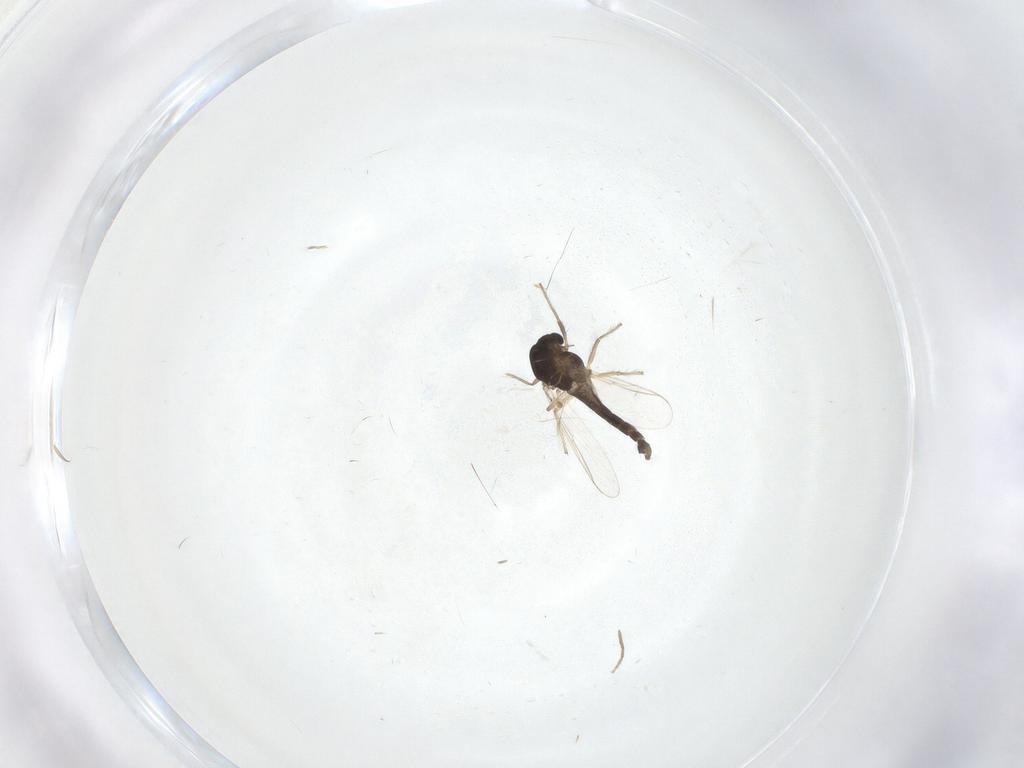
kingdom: Animalia
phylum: Arthropoda
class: Insecta
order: Diptera
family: Chironomidae
